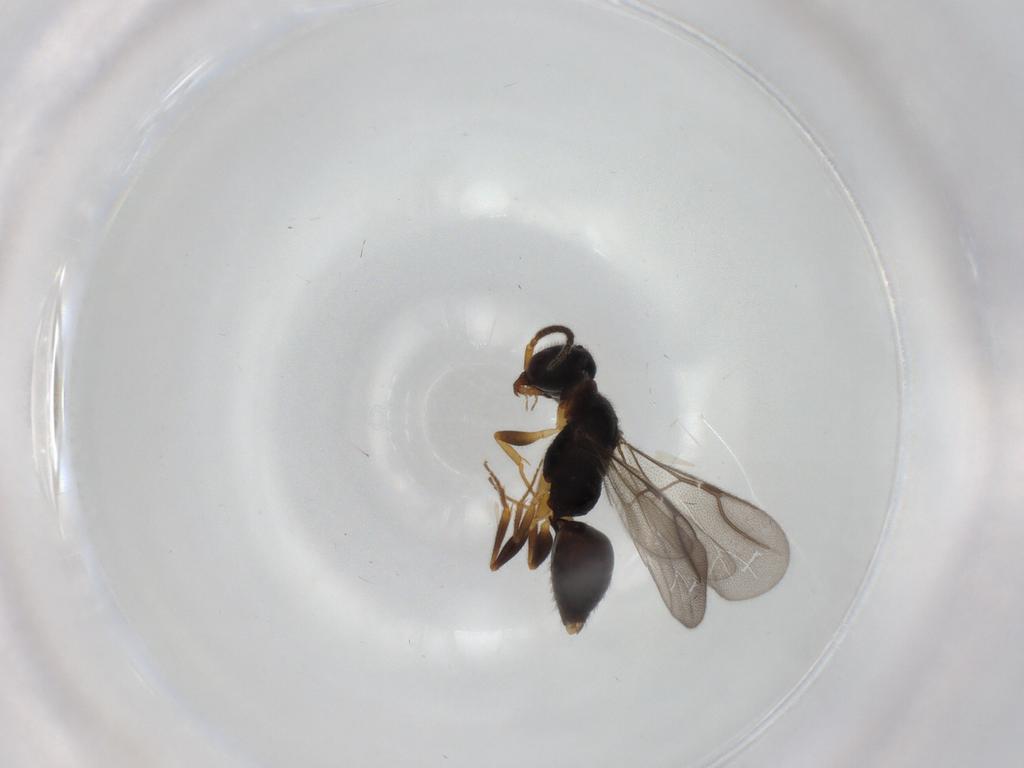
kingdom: Animalia
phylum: Arthropoda
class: Insecta
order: Hymenoptera
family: Bethylidae
